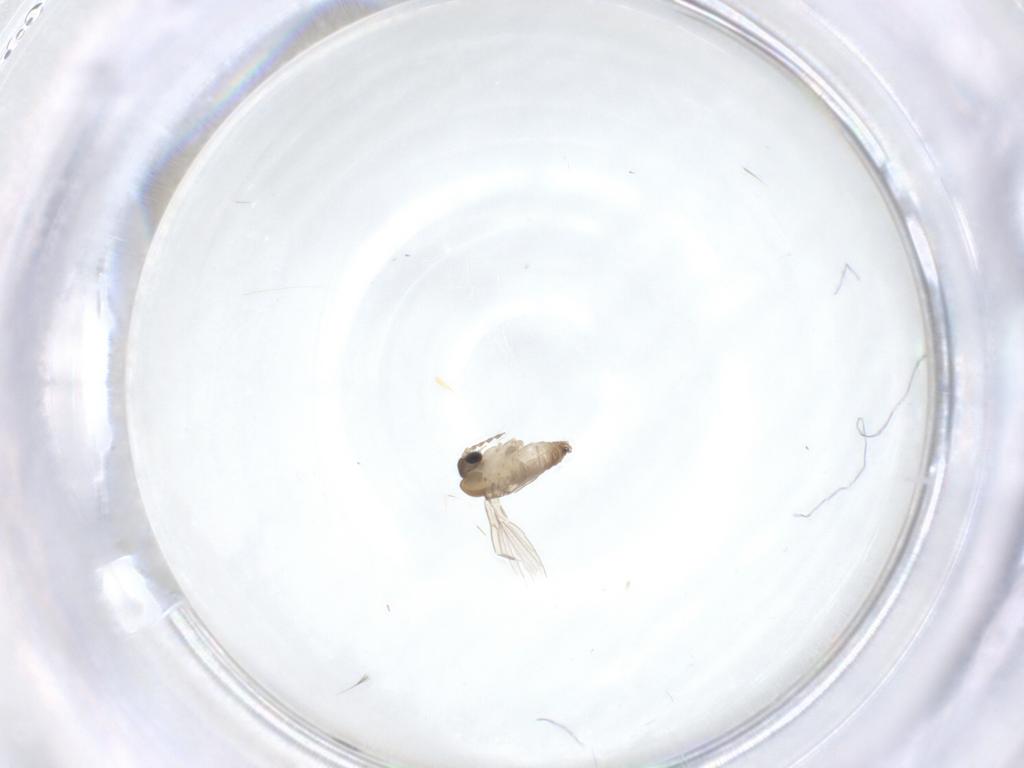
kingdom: Animalia
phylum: Arthropoda
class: Insecta
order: Diptera
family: Psychodidae
